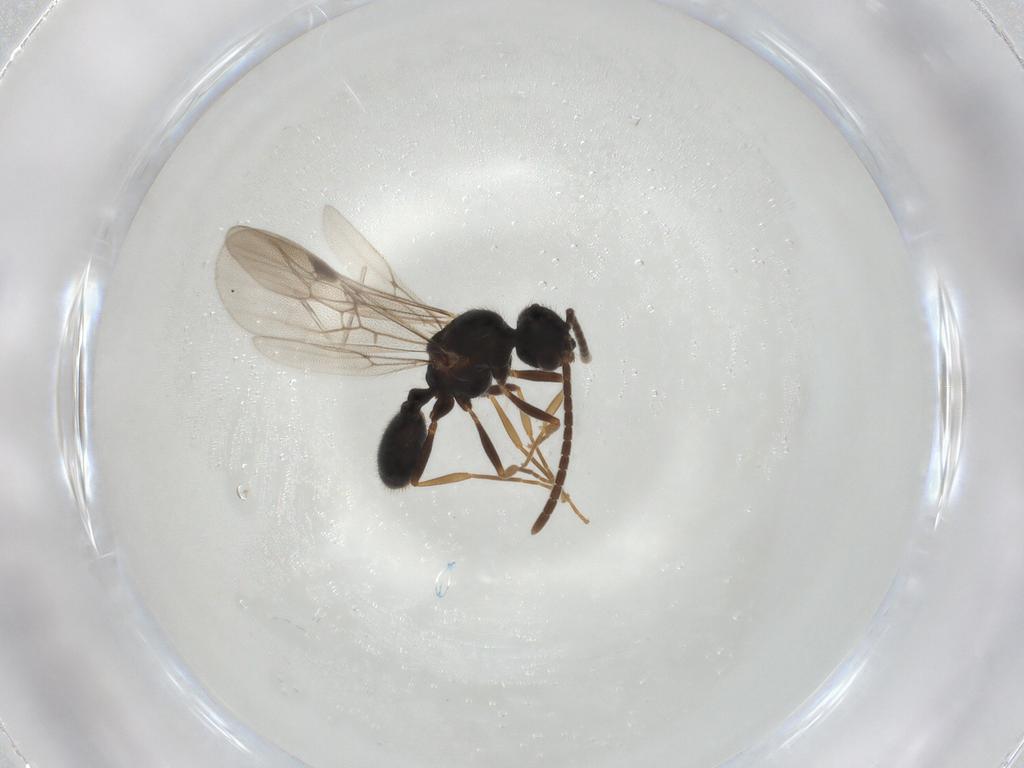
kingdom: Animalia
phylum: Arthropoda
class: Insecta
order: Hymenoptera
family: Formicidae
